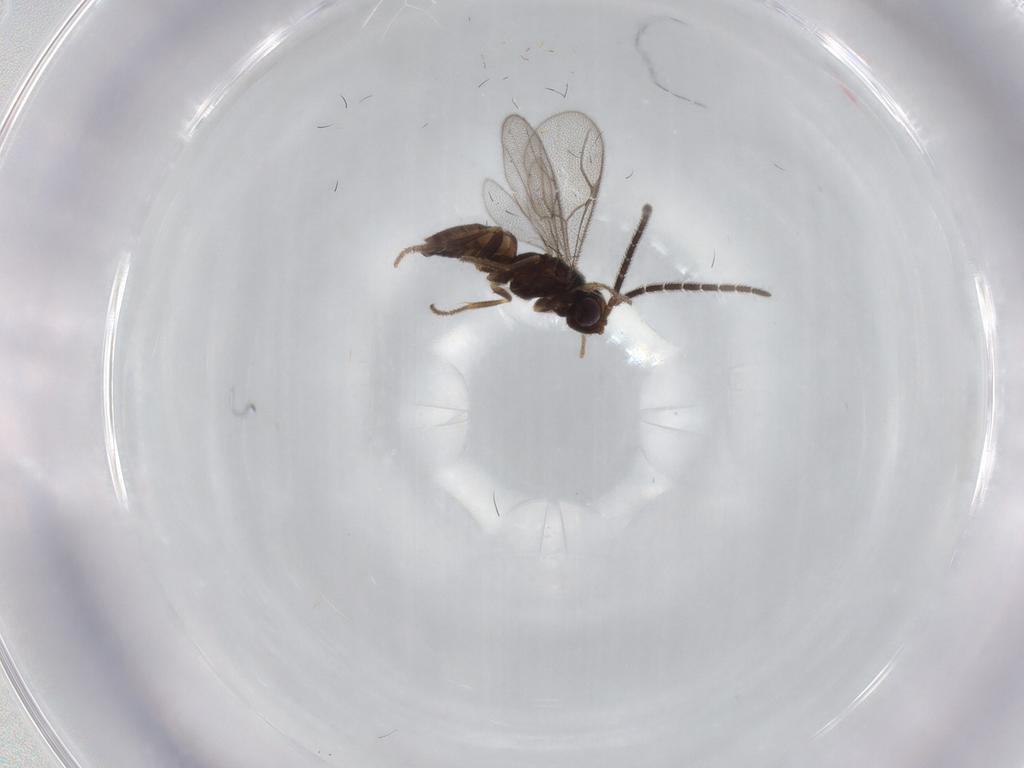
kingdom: Animalia
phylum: Arthropoda
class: Insecta
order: Hymenoptera
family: Dryinidae
